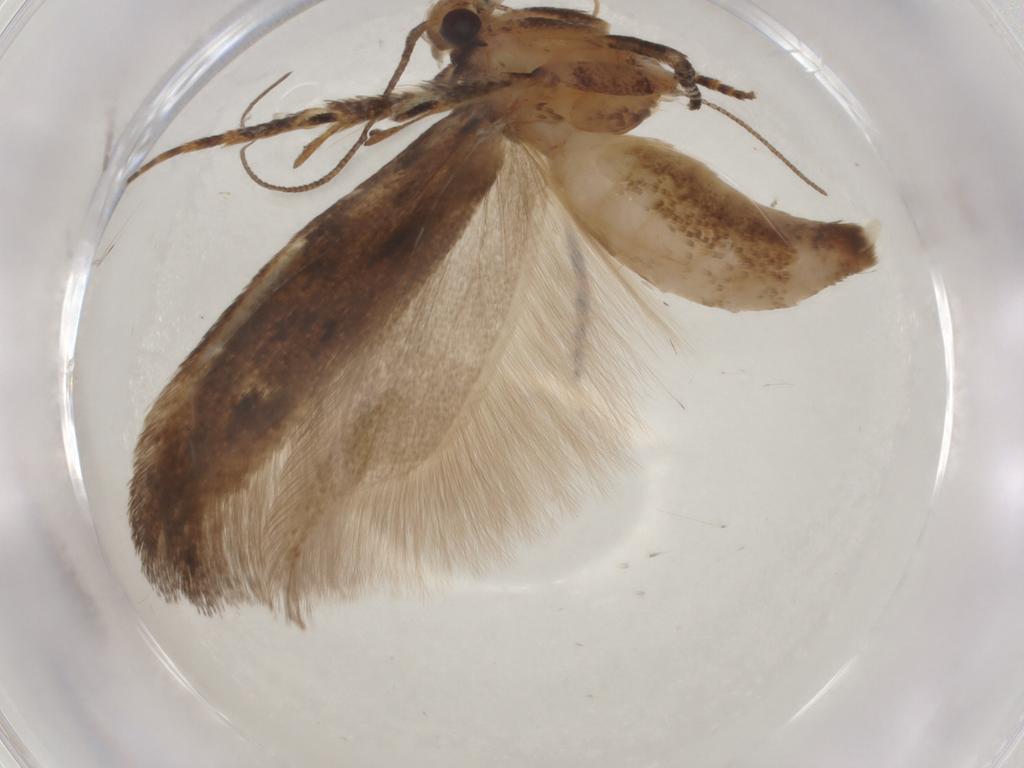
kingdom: Animalia
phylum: Arthropoda
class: Insecta
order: Lepidoptera
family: Gelechiidae
